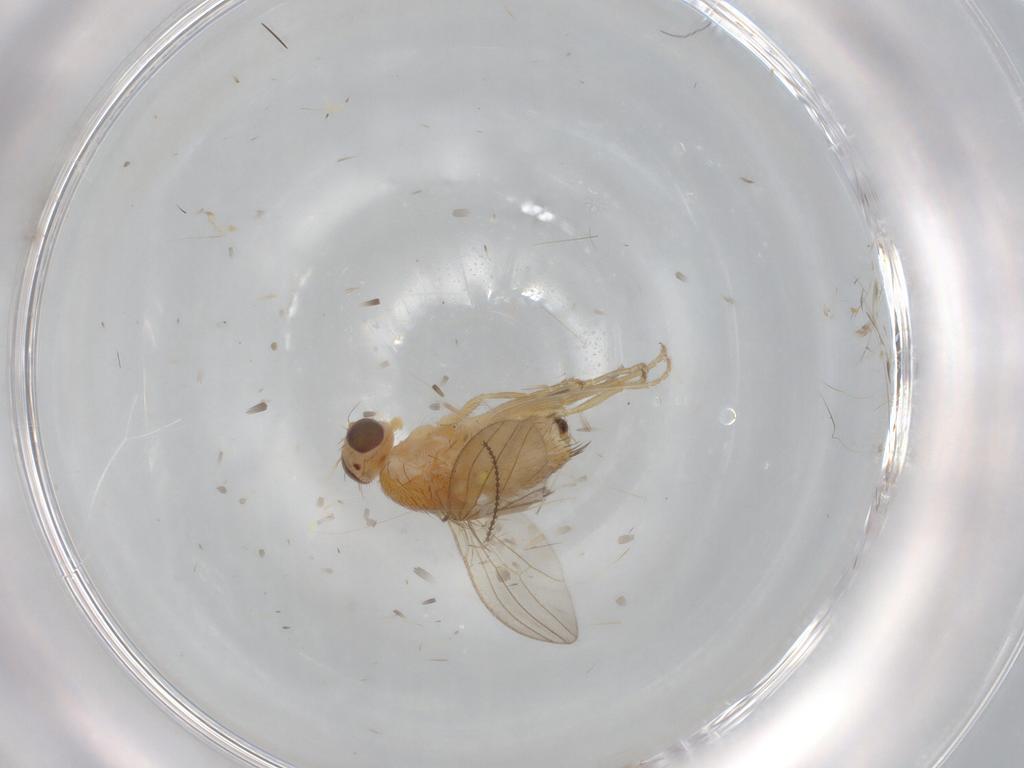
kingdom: Animalia
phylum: Arthropoda
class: Insecta
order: Diptera
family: Chyromyidae
